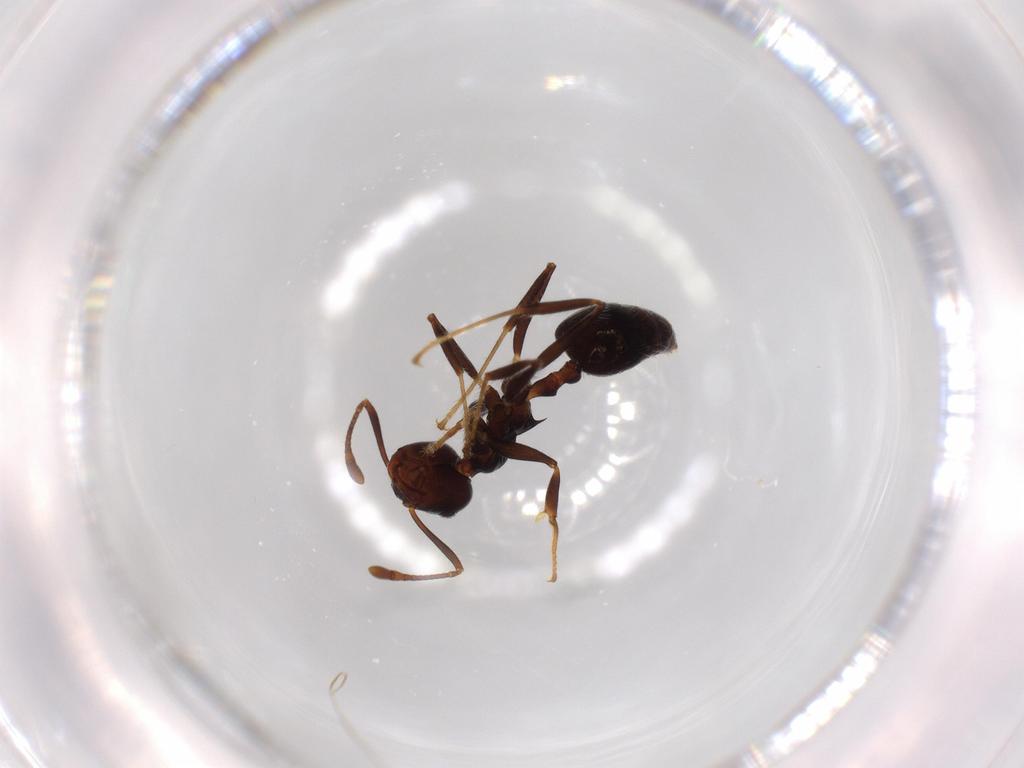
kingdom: Animalia
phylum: Arthropoda
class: Insecta
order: Hymenoptera
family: Formicidae
